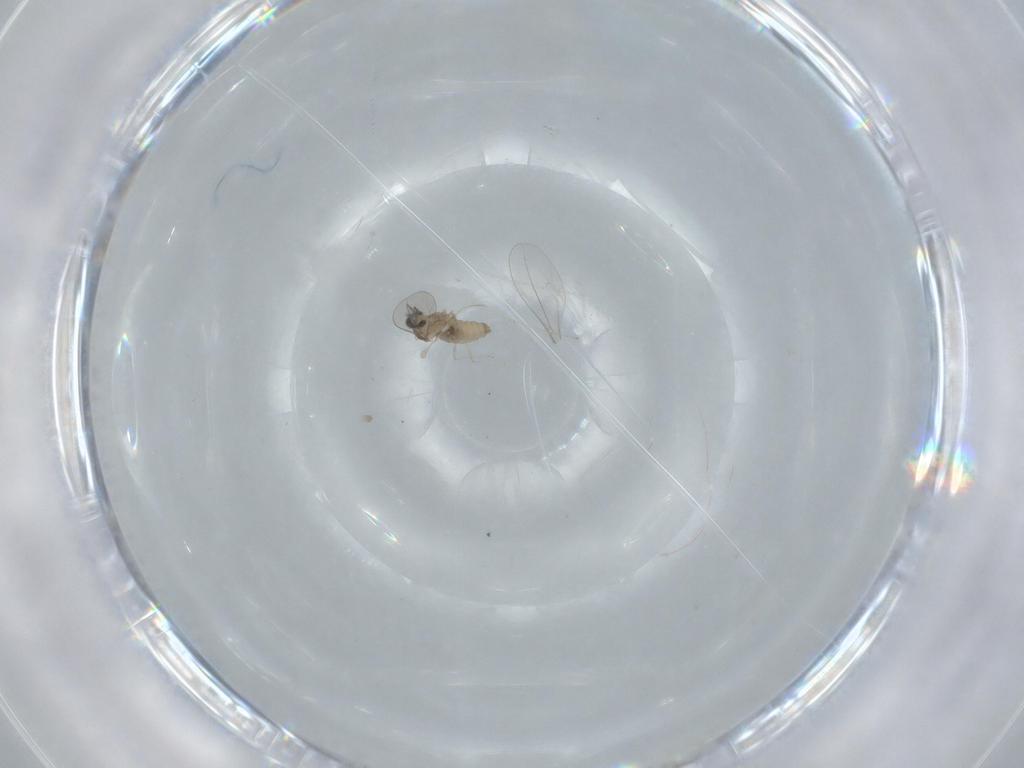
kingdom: Animalia
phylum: Arthropoda
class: Insecta
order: Diptera
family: Cecidomyiidae
